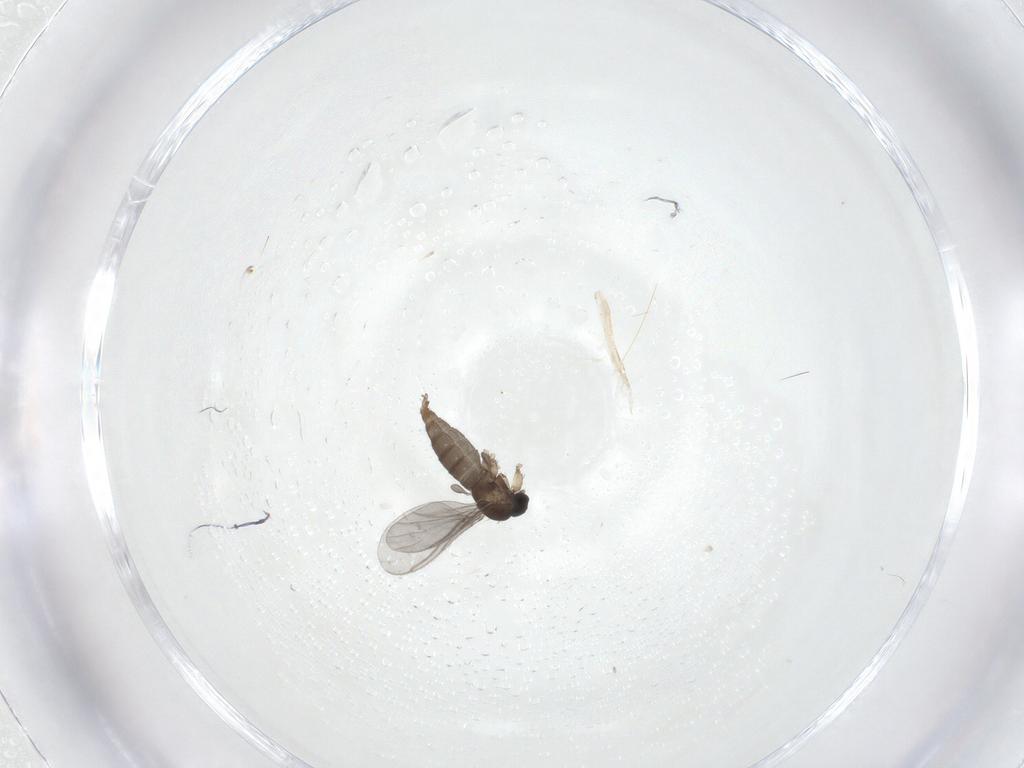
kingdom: Animalia
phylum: Arthropoda
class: Insecta
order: Diptera
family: Sciaridae
